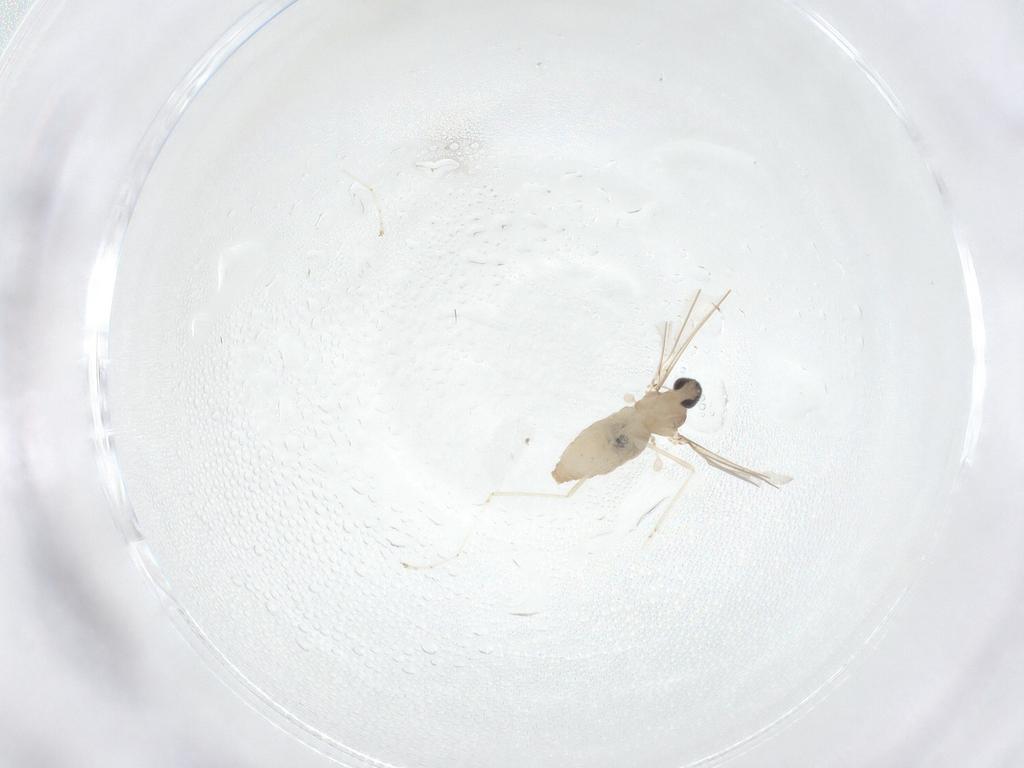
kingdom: Animalia
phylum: Arthropoda
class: Insecta
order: Diptera
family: Cecidomyiidae
